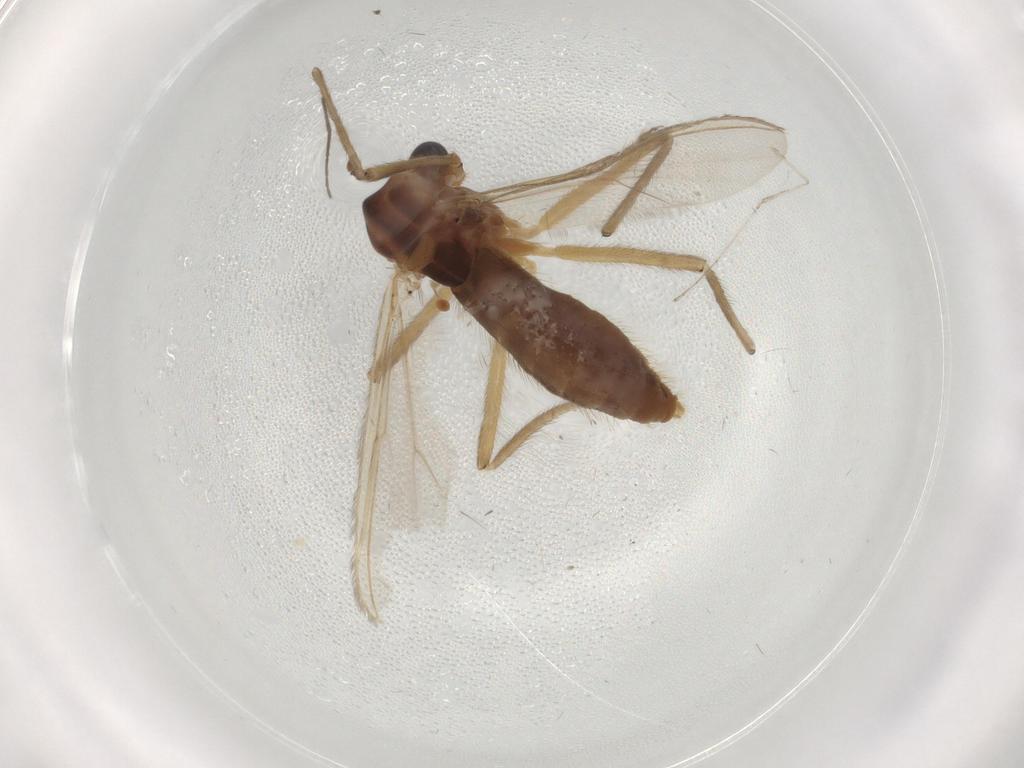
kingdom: Animalia
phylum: Arthropoda
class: Insecta
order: Diptera
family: Chironomidae
